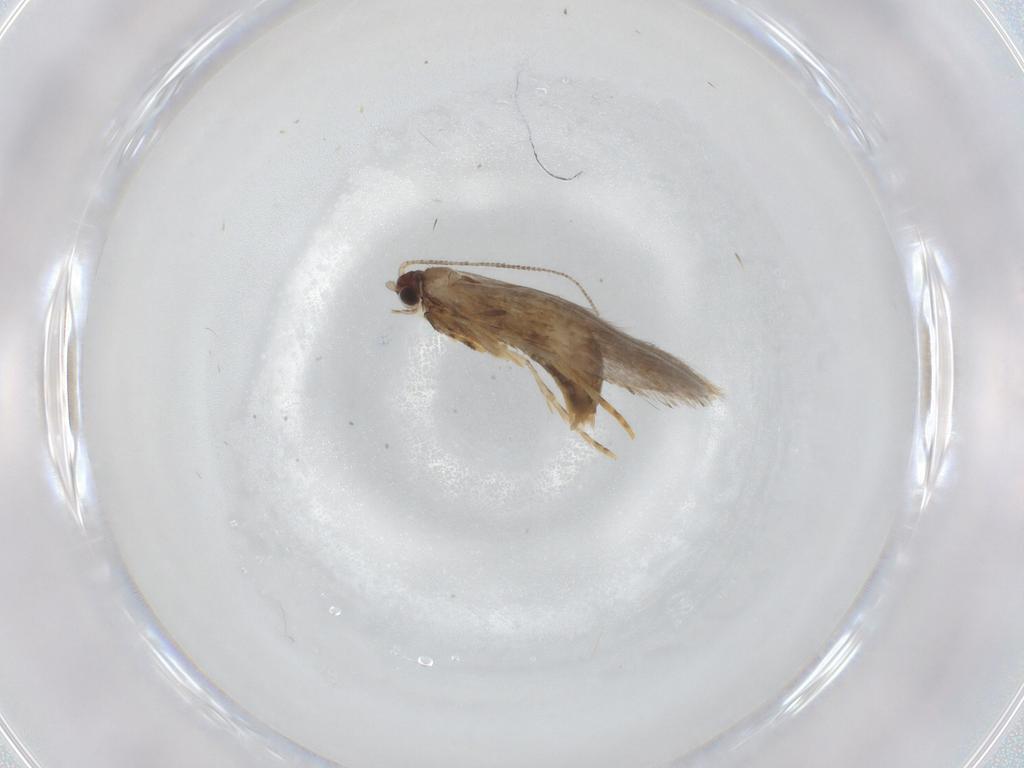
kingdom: Animalia
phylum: Arthropoda
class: Insecta
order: Lepidoptera
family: Tineidae
